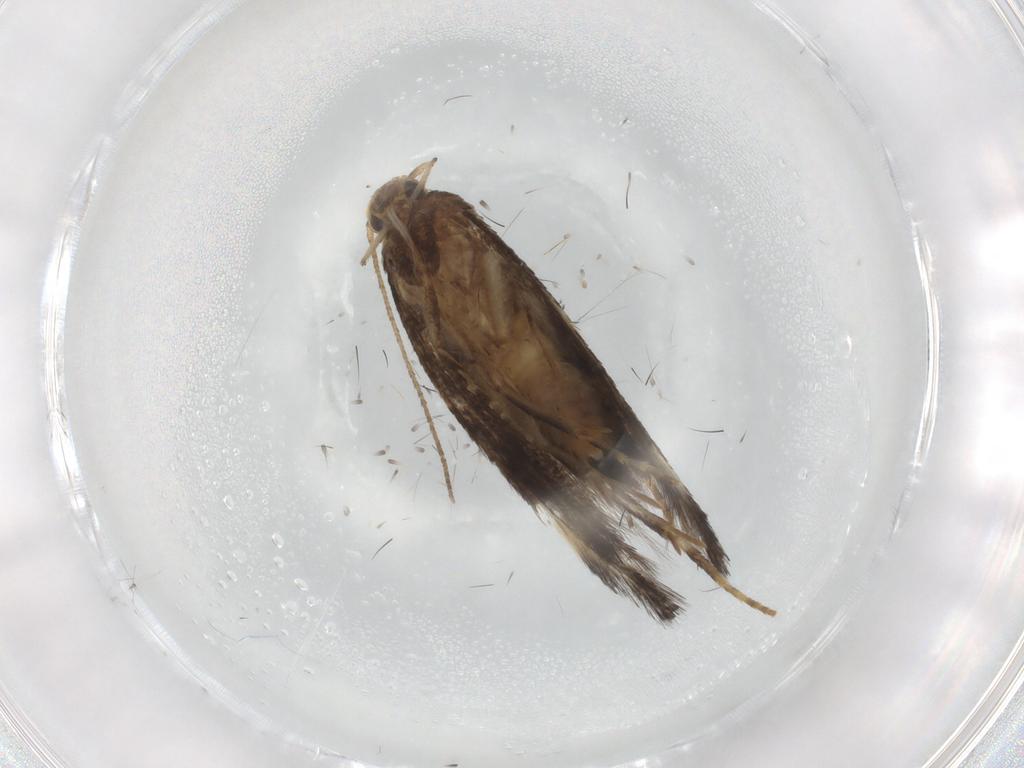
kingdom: Animalia
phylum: Arthropoda
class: Insecta
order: Lepidoptera
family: Elachistidae
